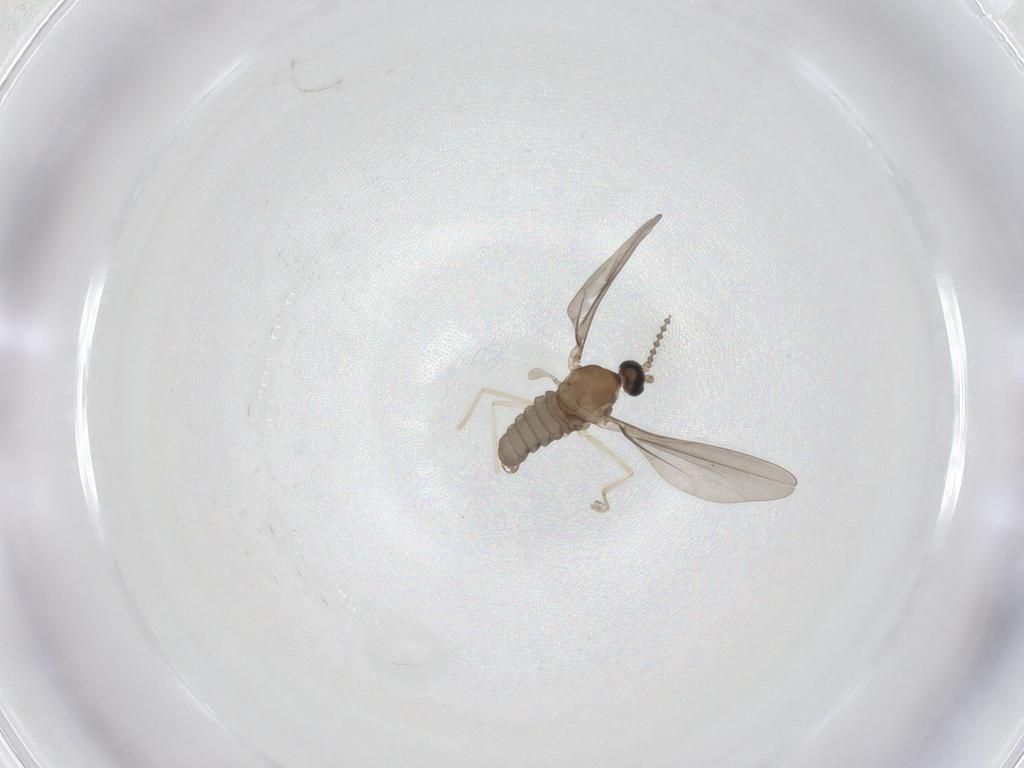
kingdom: Animalia
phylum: Arthropoda
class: Insecta
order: Diptera
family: Cecidomyiidae
